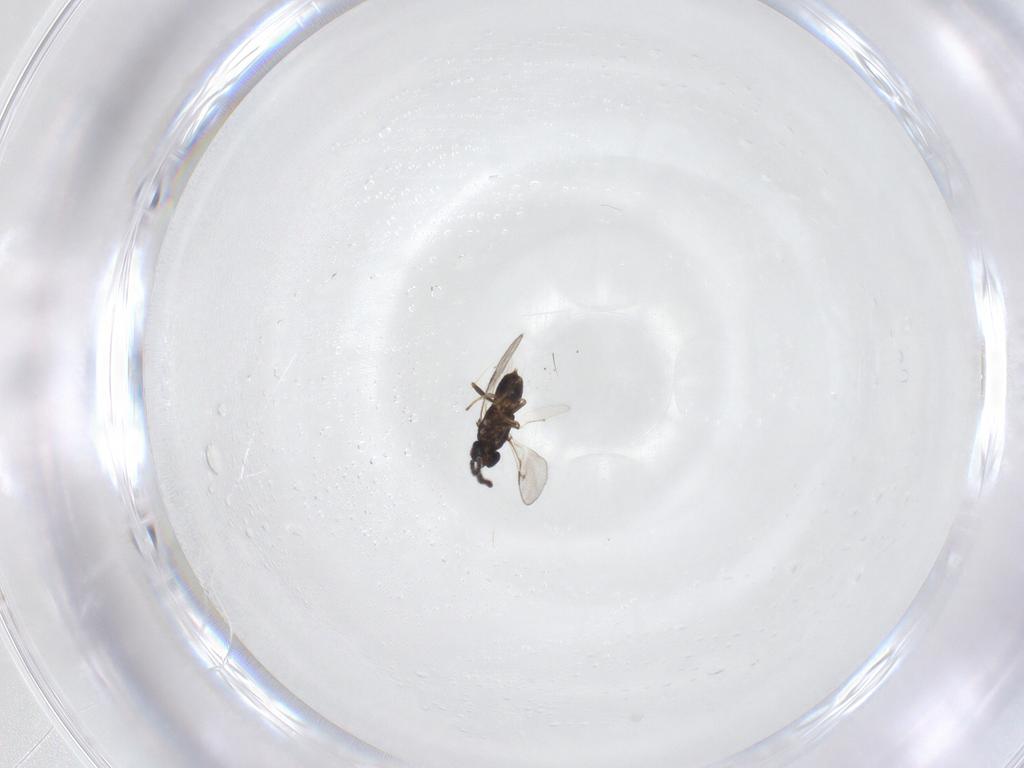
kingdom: Animalia
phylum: Arthropoda
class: Insecta
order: Hymenoptera
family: Encyrtidae
